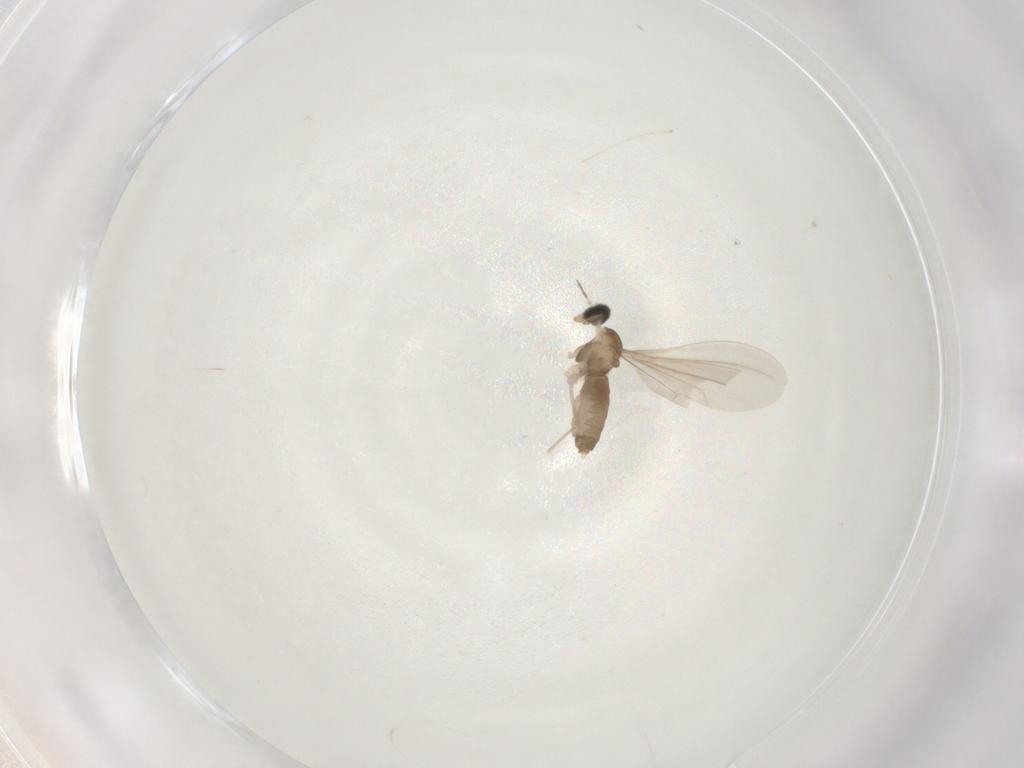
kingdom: Animalia
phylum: Arthropoda
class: Insecta
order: Diptera
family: Cecidomyiidae
